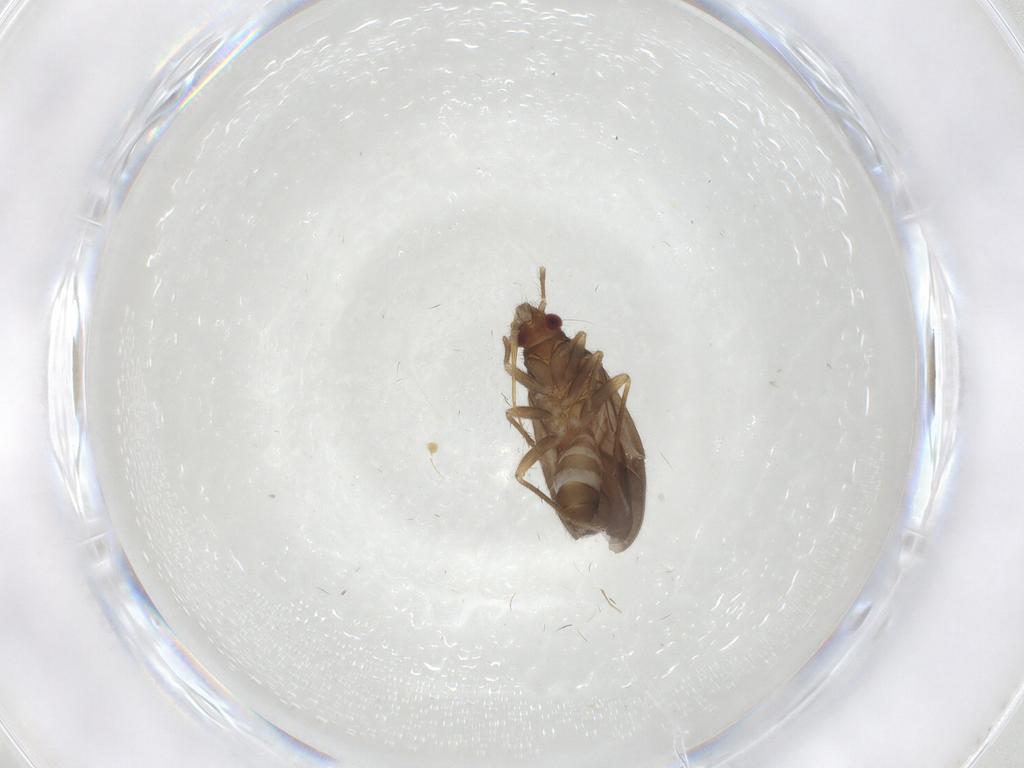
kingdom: Animalia
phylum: Arthropoda
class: Insecta
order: Hemiptera
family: Ceratocombidae
